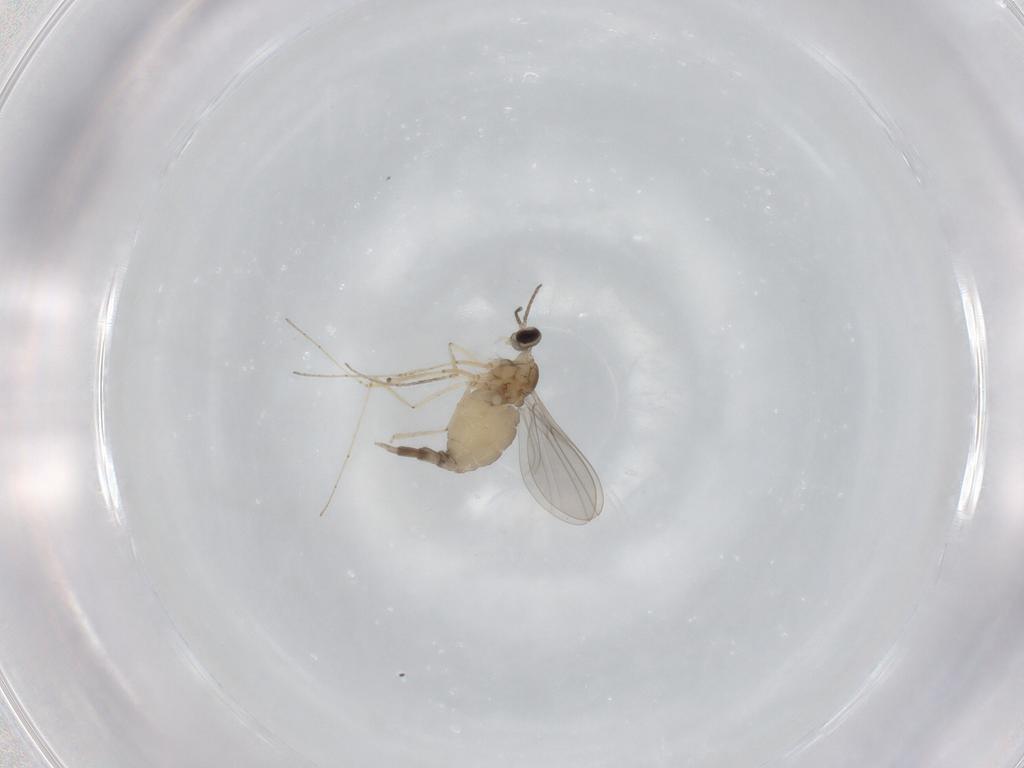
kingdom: Animalia
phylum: Arthropoda
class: Insecta
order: Diptera
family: Cecidomyiidae
